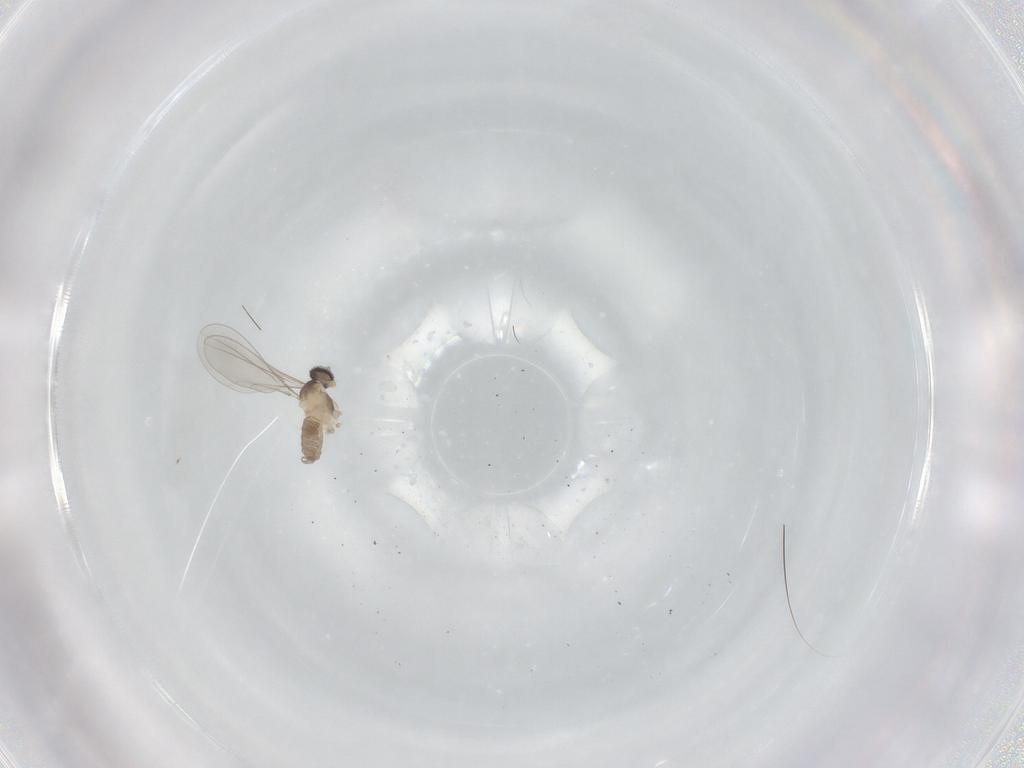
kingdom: Animalia
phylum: Arthropoda
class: Insecta
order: Diptera
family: Cecidomyiidae
